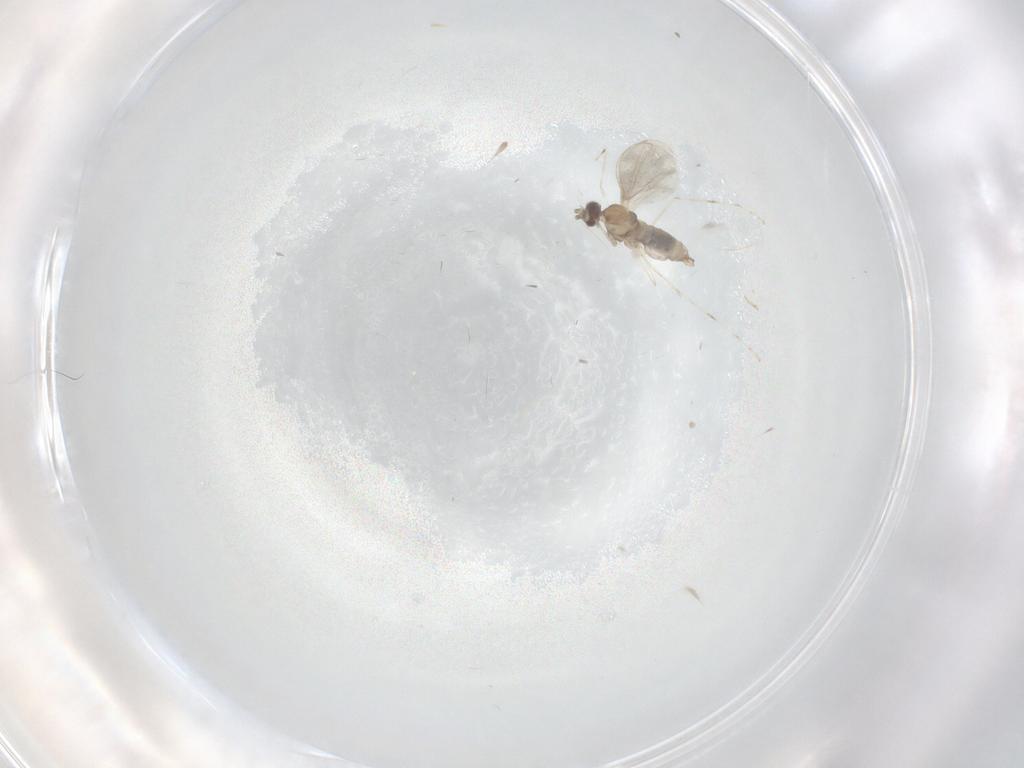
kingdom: Animalia
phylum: Arthropoda
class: Insecta
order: Diptera
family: Mycetophilidae
